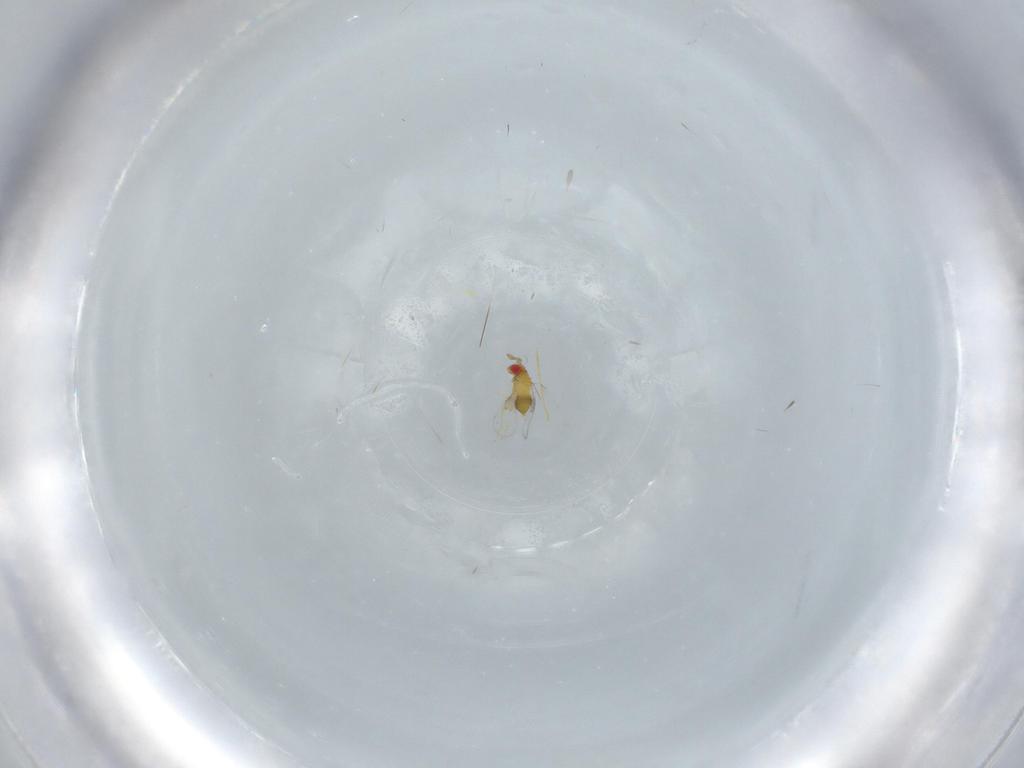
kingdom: Animalia
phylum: Arthropoda
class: Insecta
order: Hymenoptera
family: Trichogrammatidae
